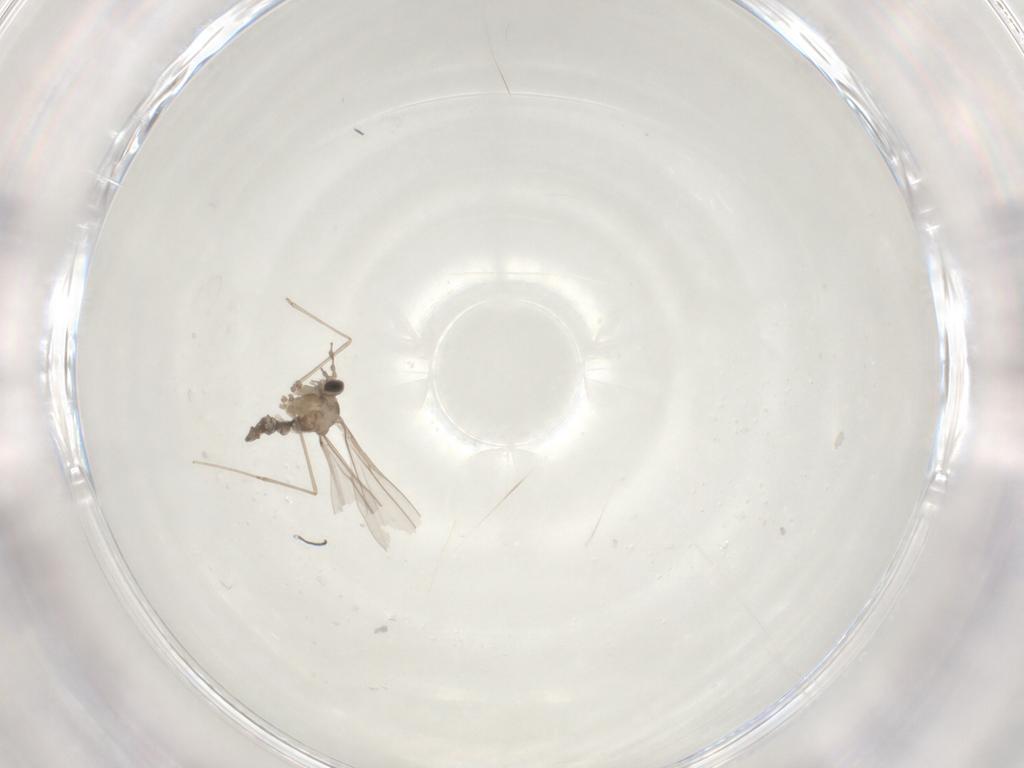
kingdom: Animalia
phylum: Arthropoda
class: Insecta
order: Diptera
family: Cecidomyiidae
